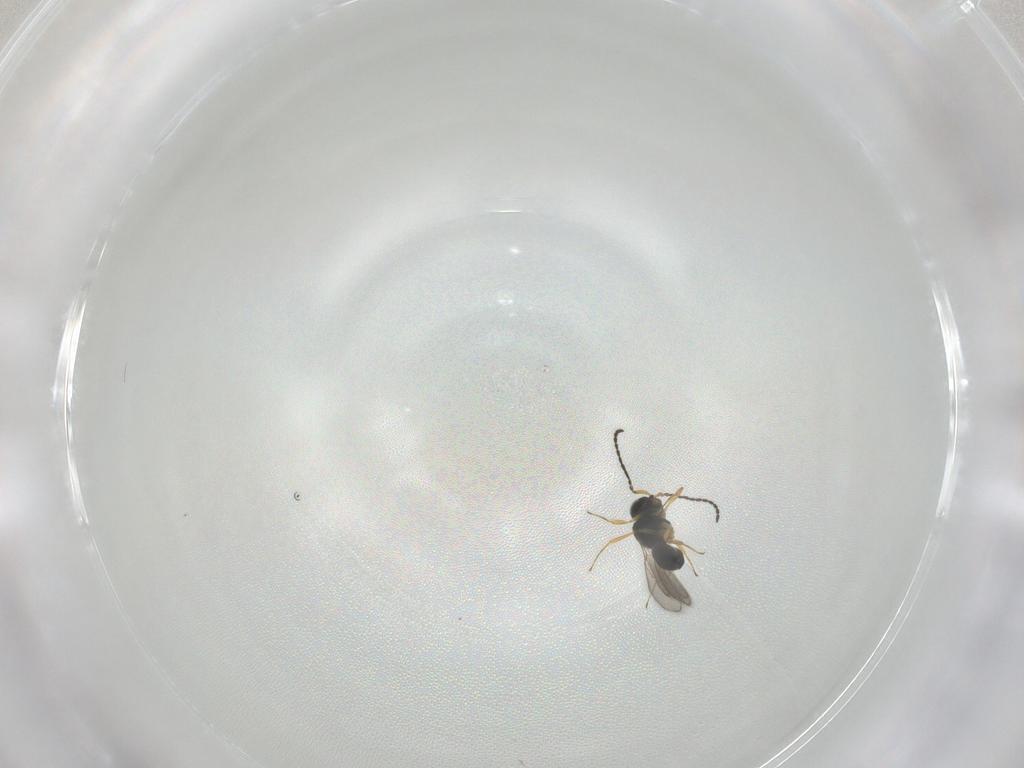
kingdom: Animalia
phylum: Arthropoda
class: Insecta
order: Hymenoptera
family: Scelionidae
